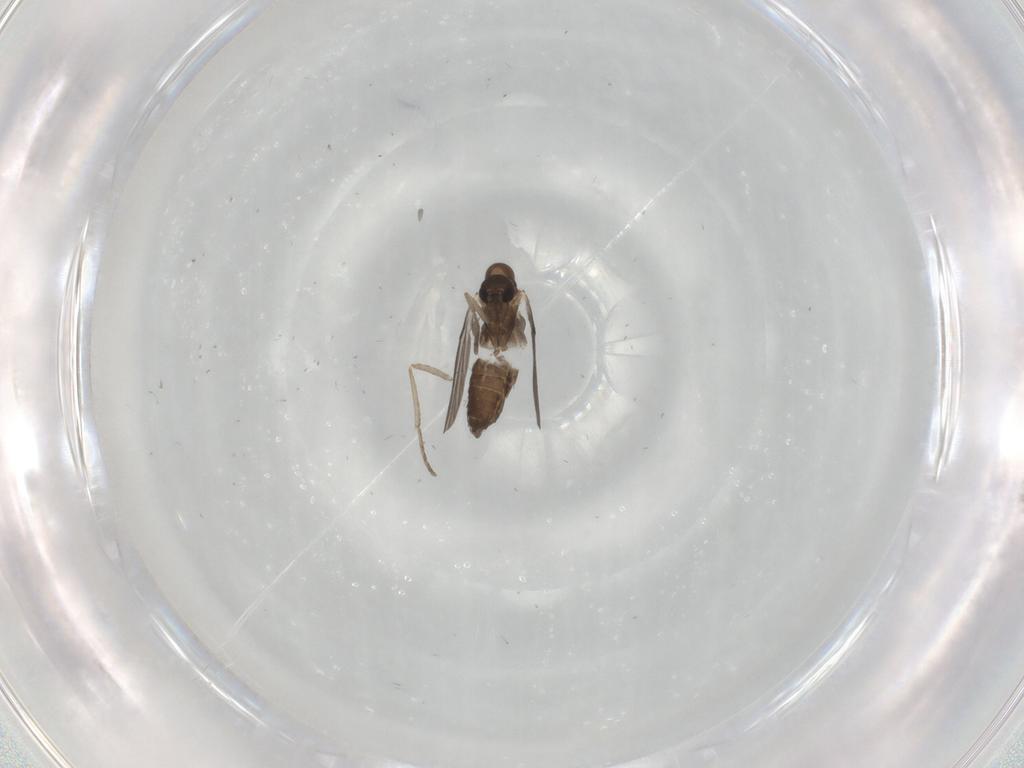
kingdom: Animalia
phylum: Arthropoda
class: Insecta
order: Diptera
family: Psychodidae
